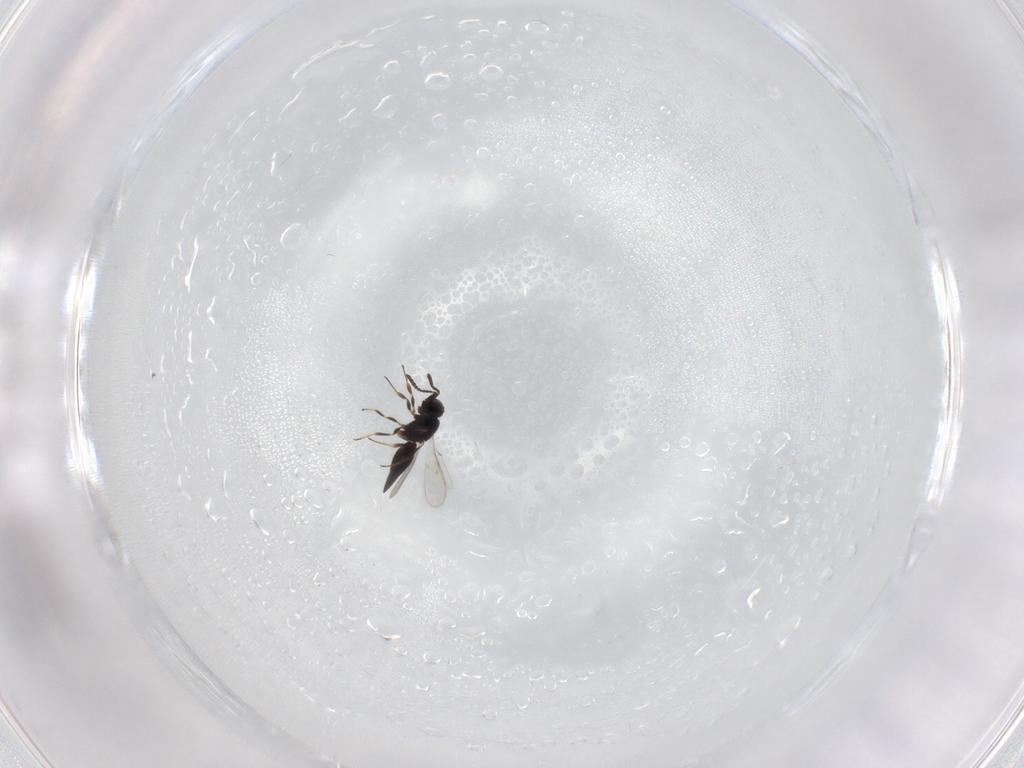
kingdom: Animalia
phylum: Arthropoda
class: Insecta
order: Hymenoptera
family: Scelionidae
